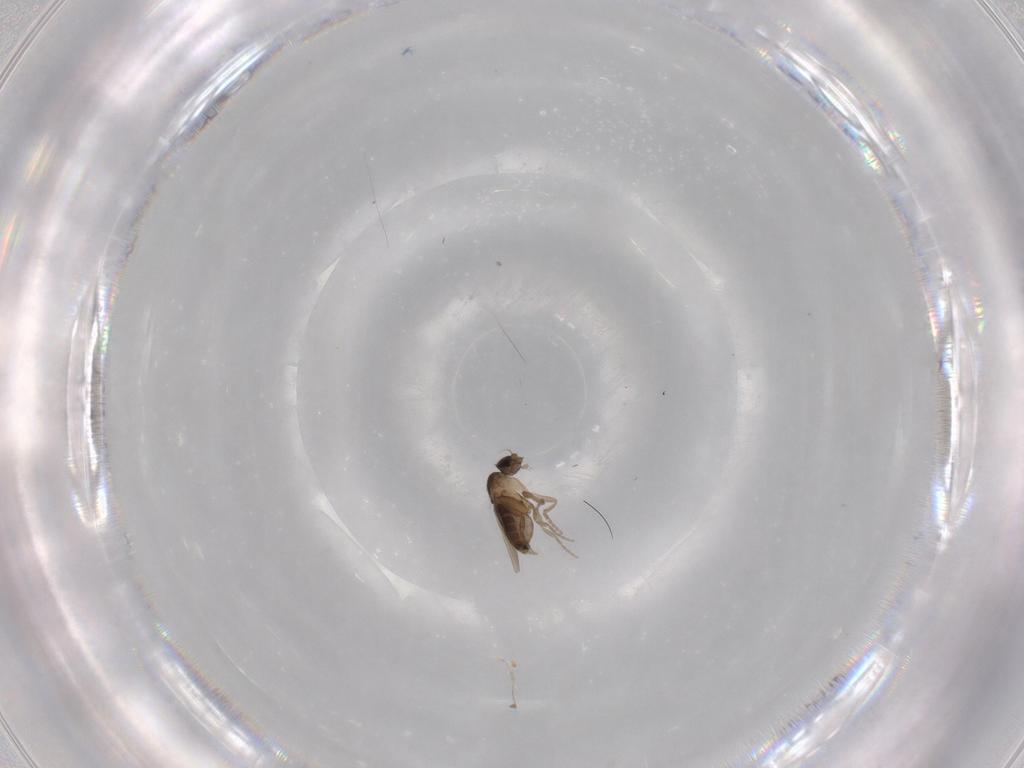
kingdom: Animalia
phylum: Arthropoda
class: Insecta
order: Diptera
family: Phoridae
